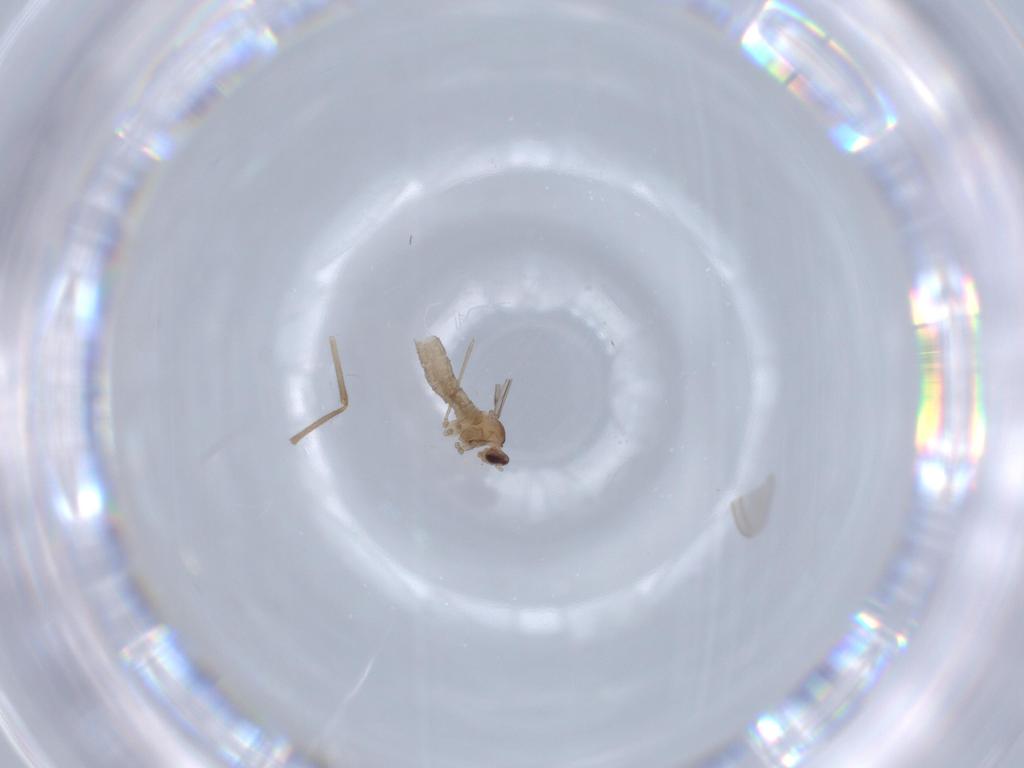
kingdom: Animalia
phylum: Arthropoda
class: Insecta
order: Diptera
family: Cecidomyiidae
